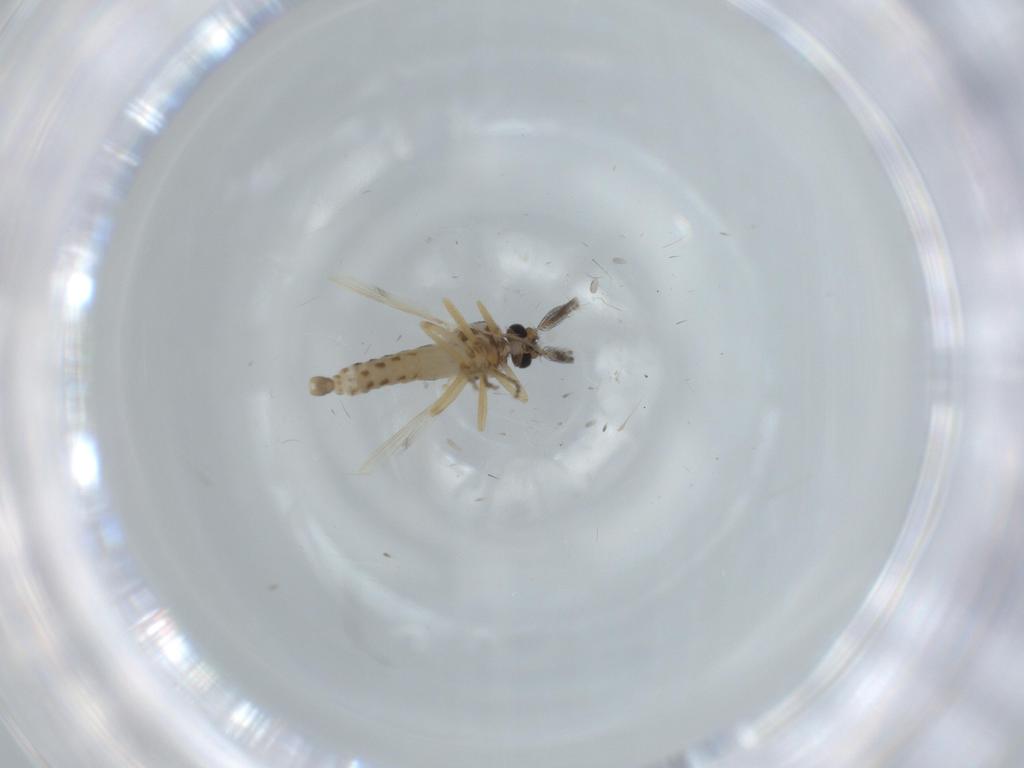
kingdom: Animalia
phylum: Arthropoda
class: Insecta
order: Diptera
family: Ceratopogonidae
